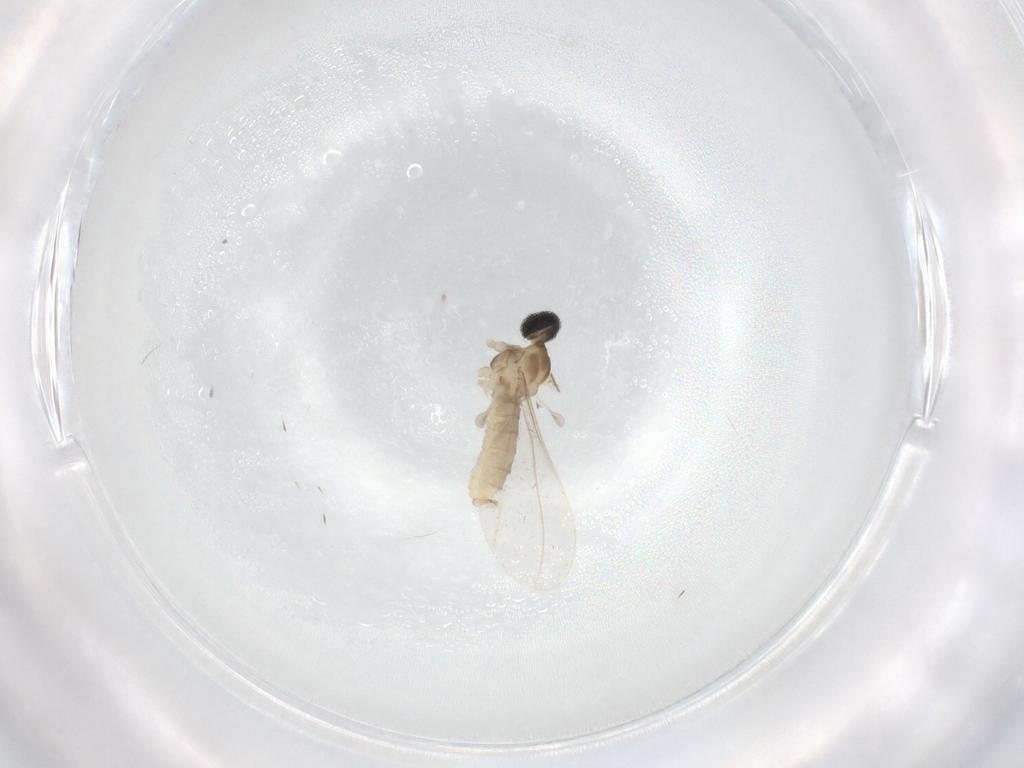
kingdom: Animalia
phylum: Arthropoda
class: Insecta
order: Diptera
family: Cecidomyiidae
